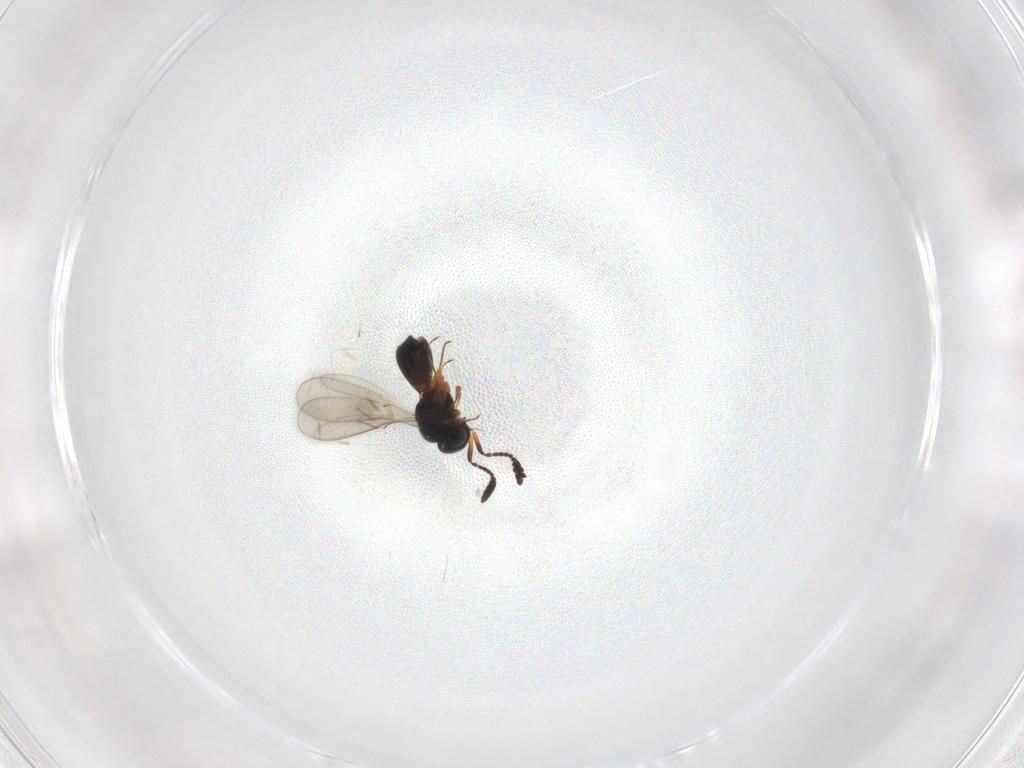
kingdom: Animalia
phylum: Arthropoda
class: Insecta
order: Hymenoptera
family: Scelionidae
